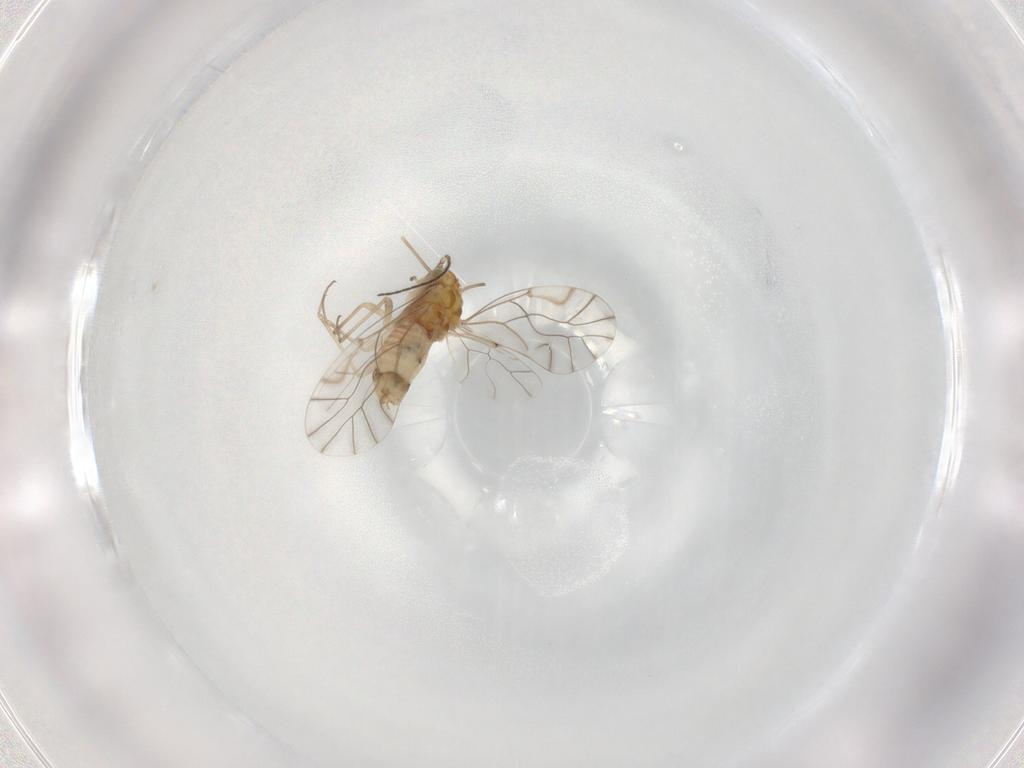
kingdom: Animalia
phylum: Arthropoda
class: Insecta
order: Psocodea
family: Lachesillidae
